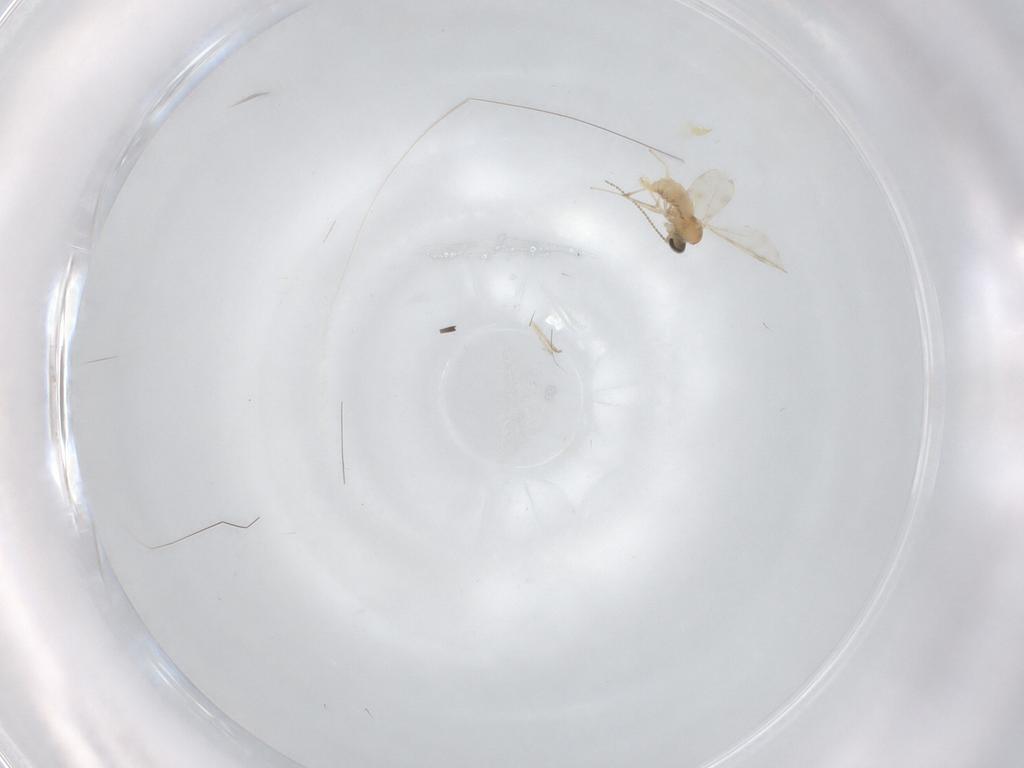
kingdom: Animalia
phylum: Arthropoda
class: Insecta
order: Diptera
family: Cecidomyiidae
